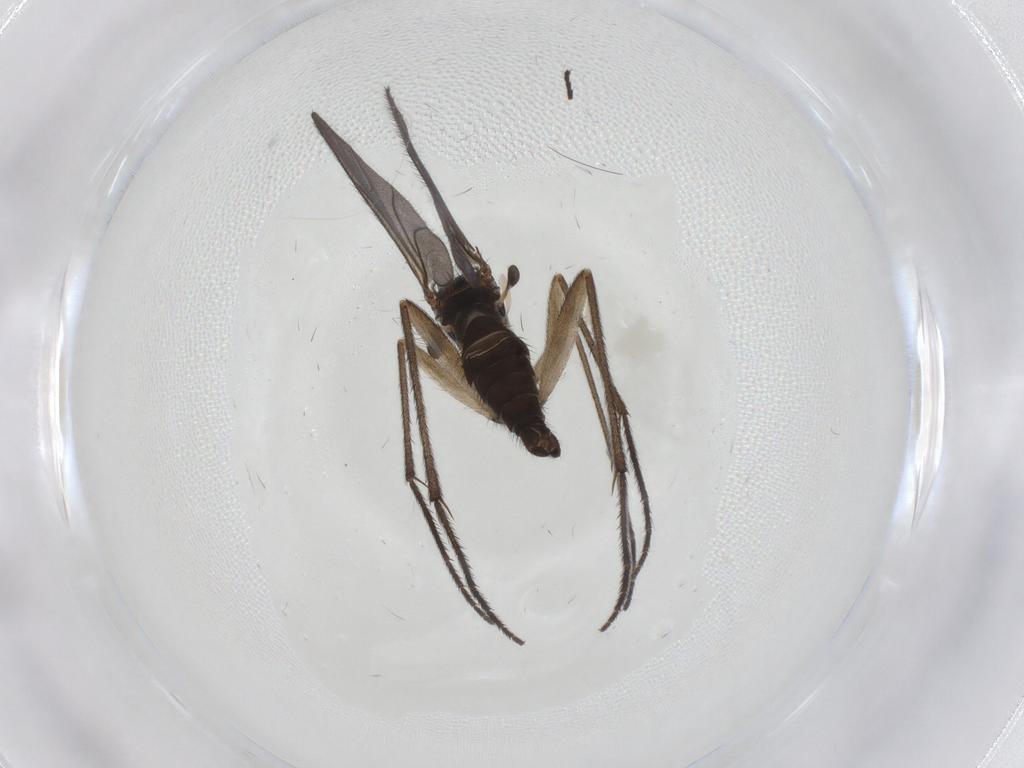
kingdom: Animalia
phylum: Arthropoda
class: Insecta
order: Diptera
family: Sciaridae
